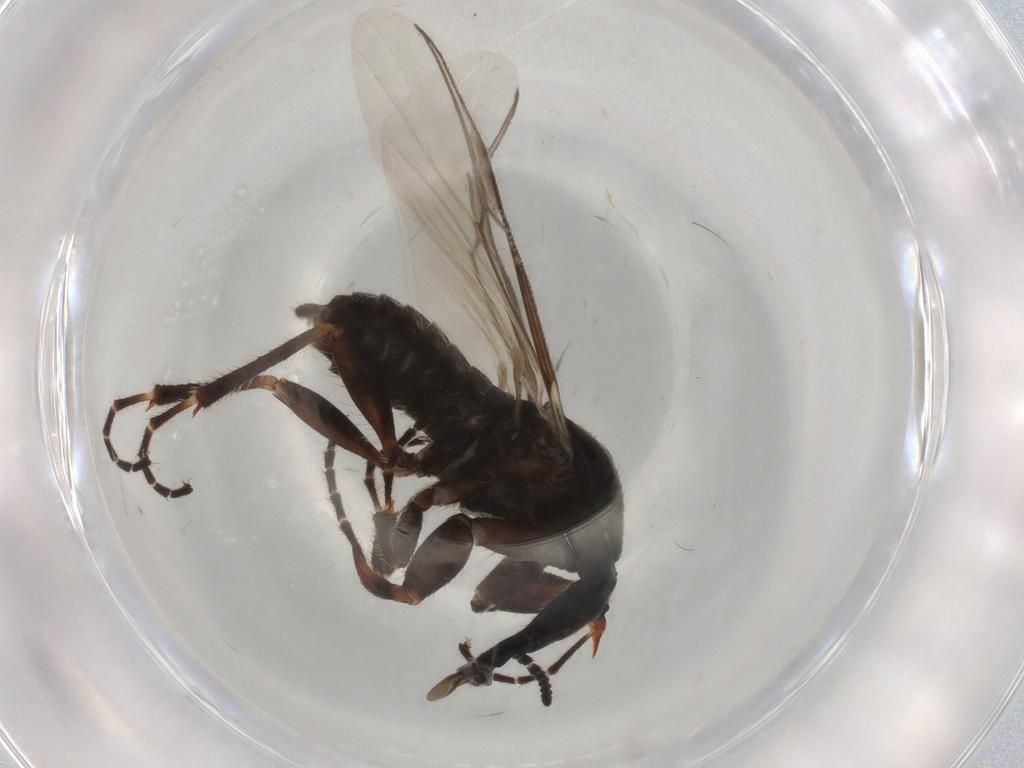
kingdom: Animalia
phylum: Arthropoda
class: Insecta
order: Diptera
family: Bibionidae
